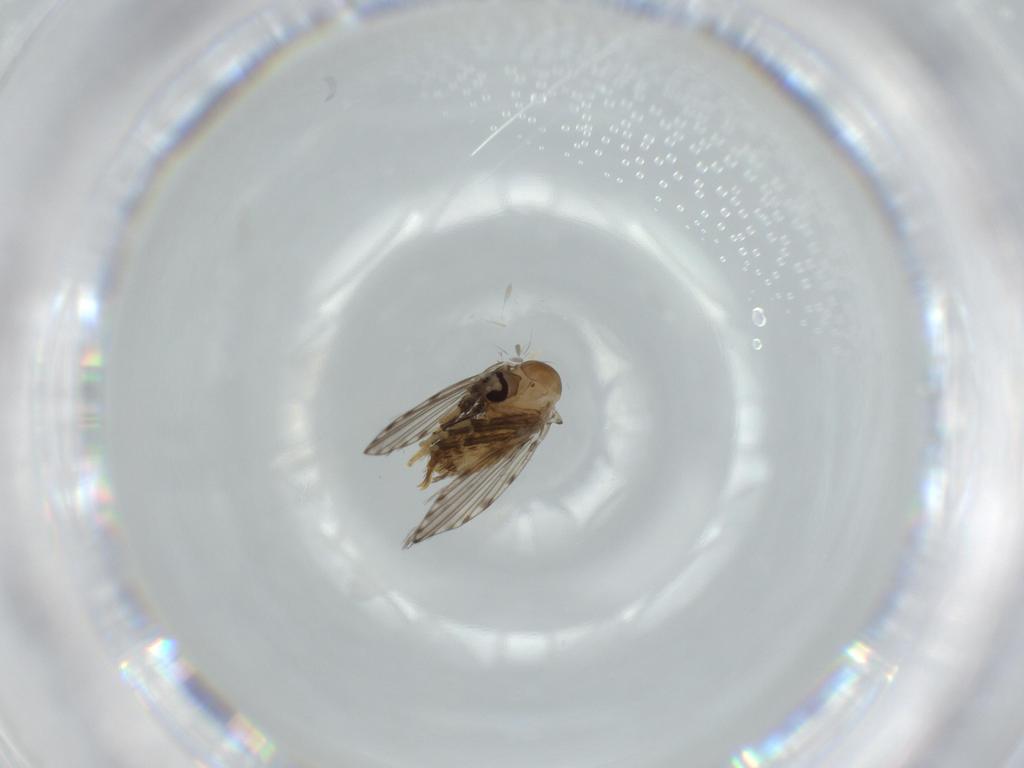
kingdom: Animalia
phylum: Arthropoda
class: Insecta
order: Diptera
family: Psychodidae
